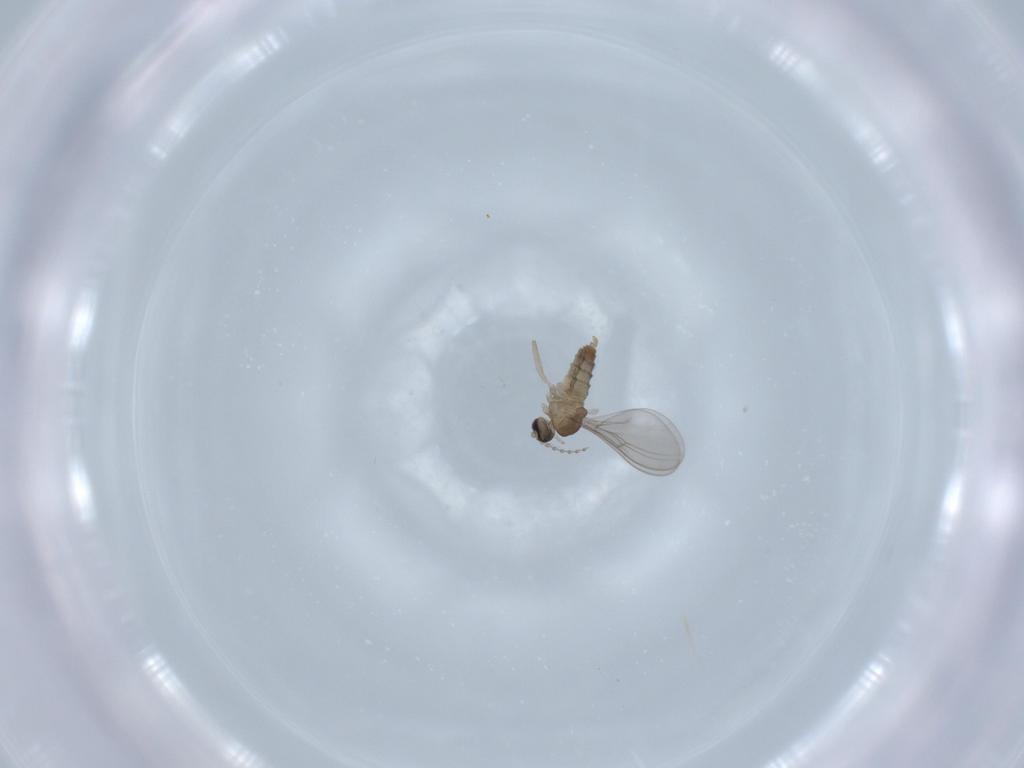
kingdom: Animalia
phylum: Arthropoda
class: Insecta
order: Diptera
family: Cecidomyiidae
